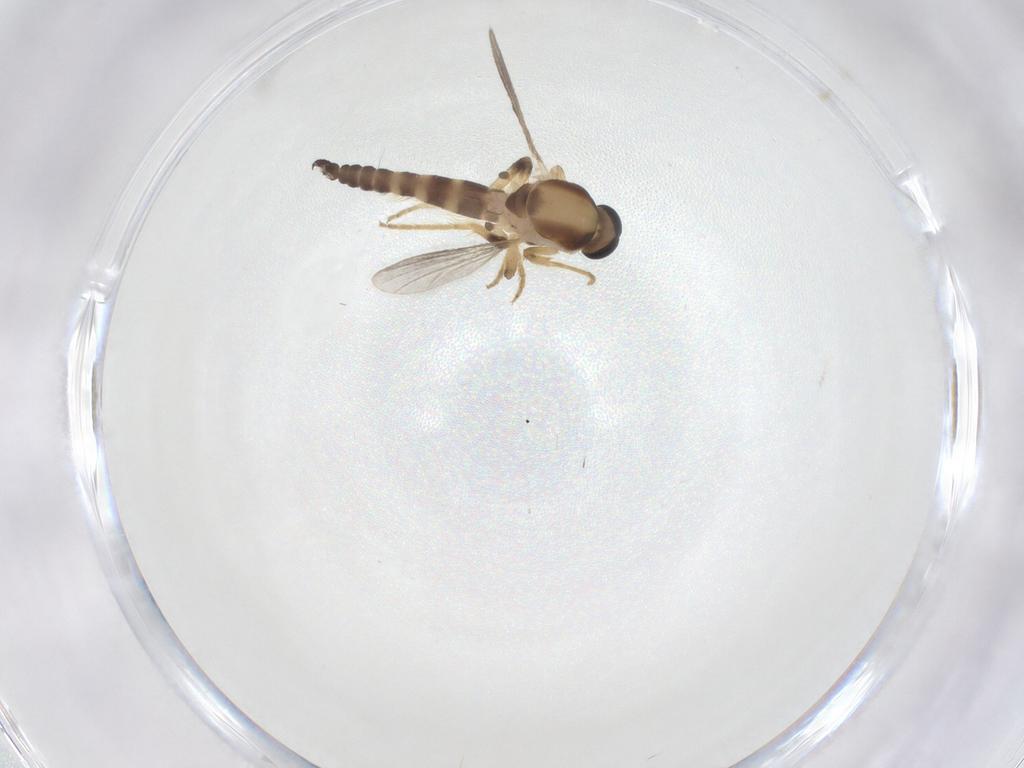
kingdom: Animalia
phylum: Arthropoda
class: Insecta
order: Diptera
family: Ceratopogonidae
